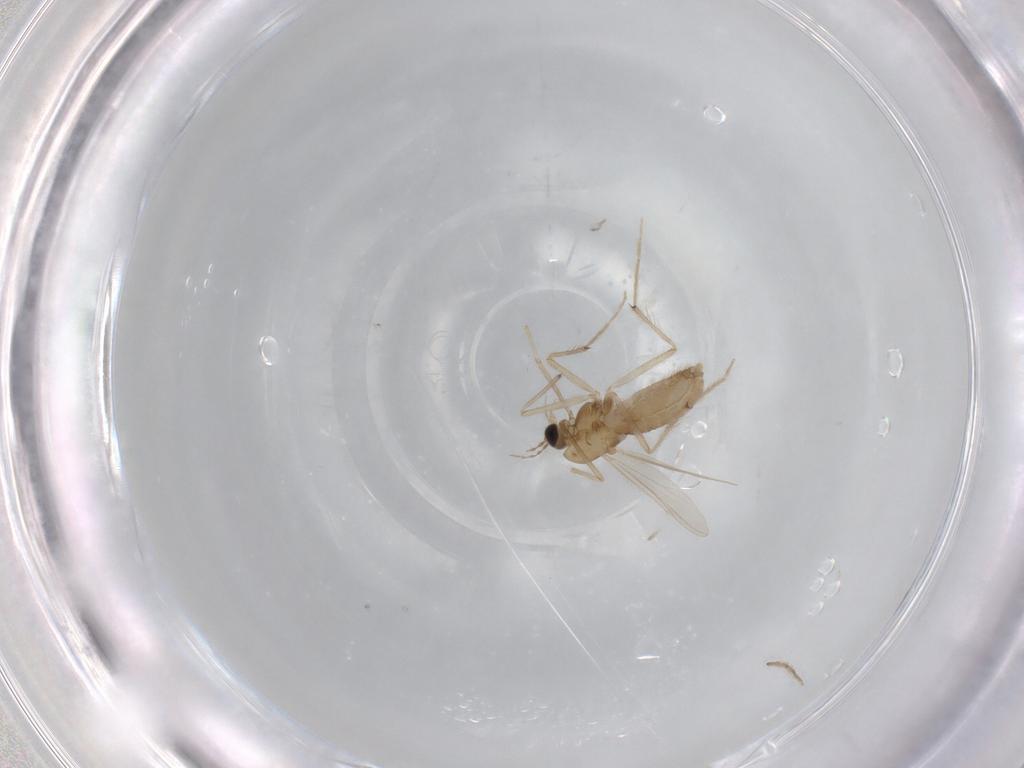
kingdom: Animalia
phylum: Arthropoda
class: Insecta
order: Diptera
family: Chironomidae
